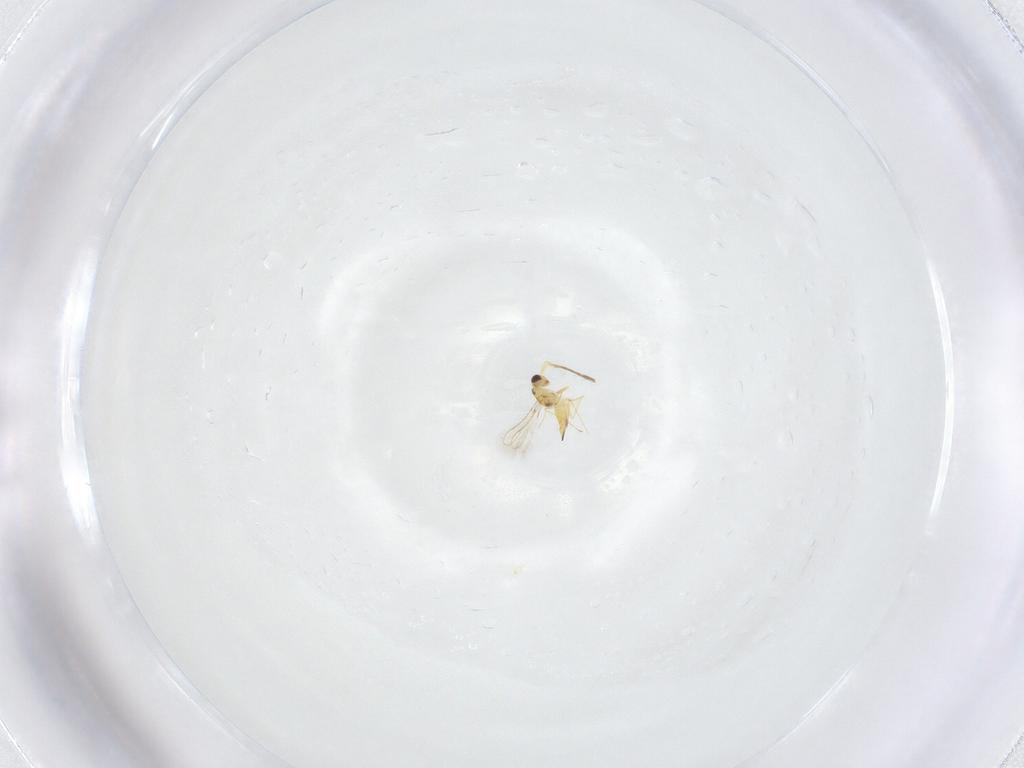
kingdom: Animalia
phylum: Arthropoda
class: Insecta
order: Hymenoptera
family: Mymaridae
